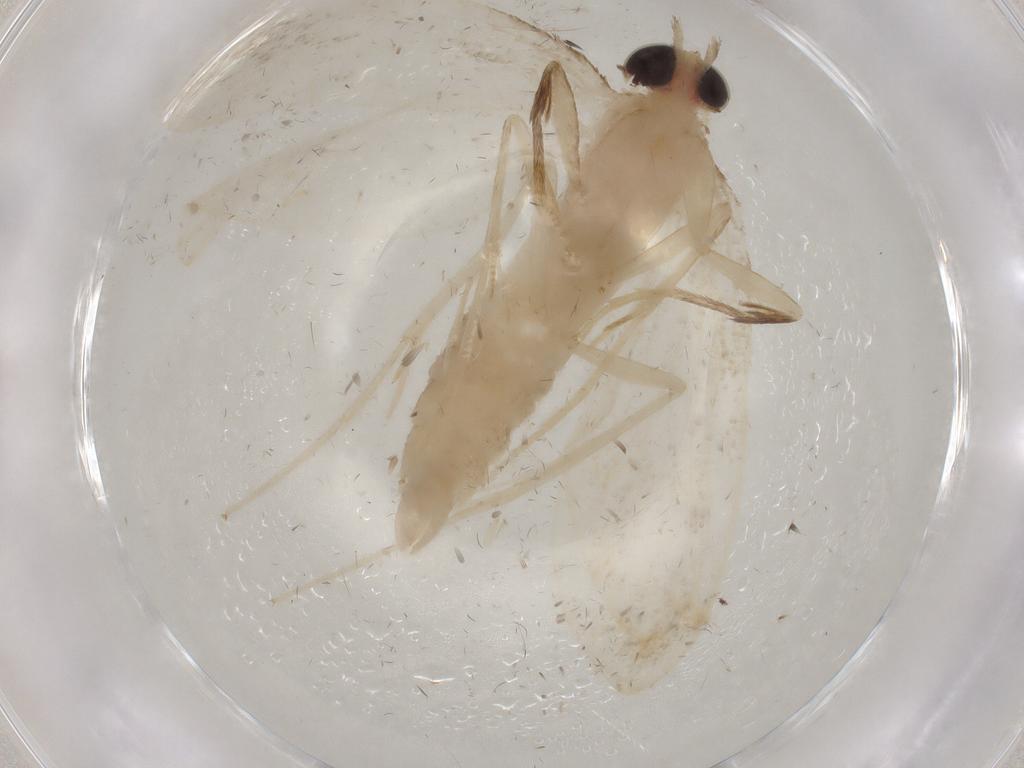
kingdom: Animalia
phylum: Arthropoda
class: Insecta
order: Lepidoptera
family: Crambidae
